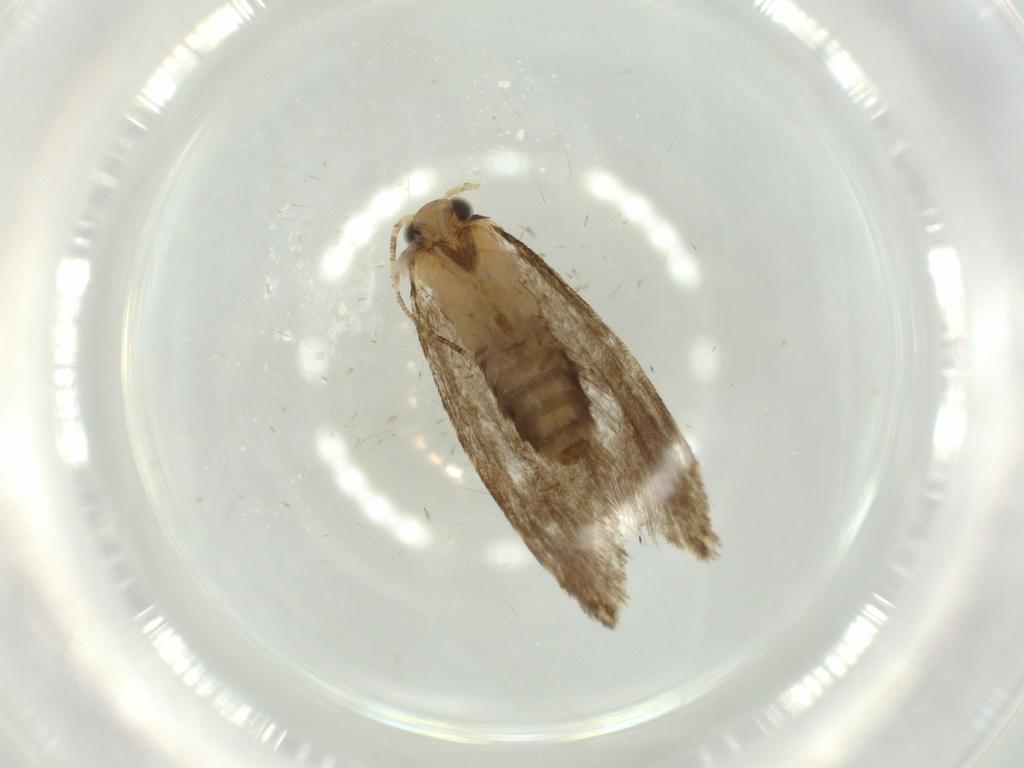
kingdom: Animalia
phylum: Arthropoda
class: Insecta
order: Lepidoptera
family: Tineidae
